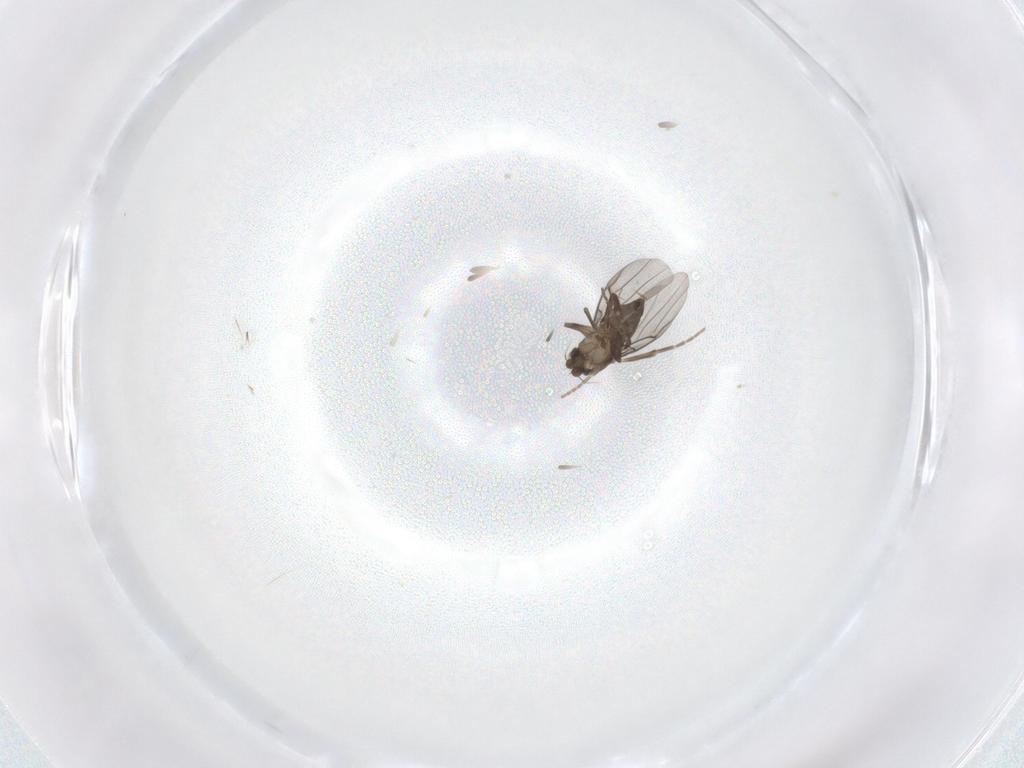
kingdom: Animalia
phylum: Arthropoda
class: Insecta
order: Diptera
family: Phoridae
